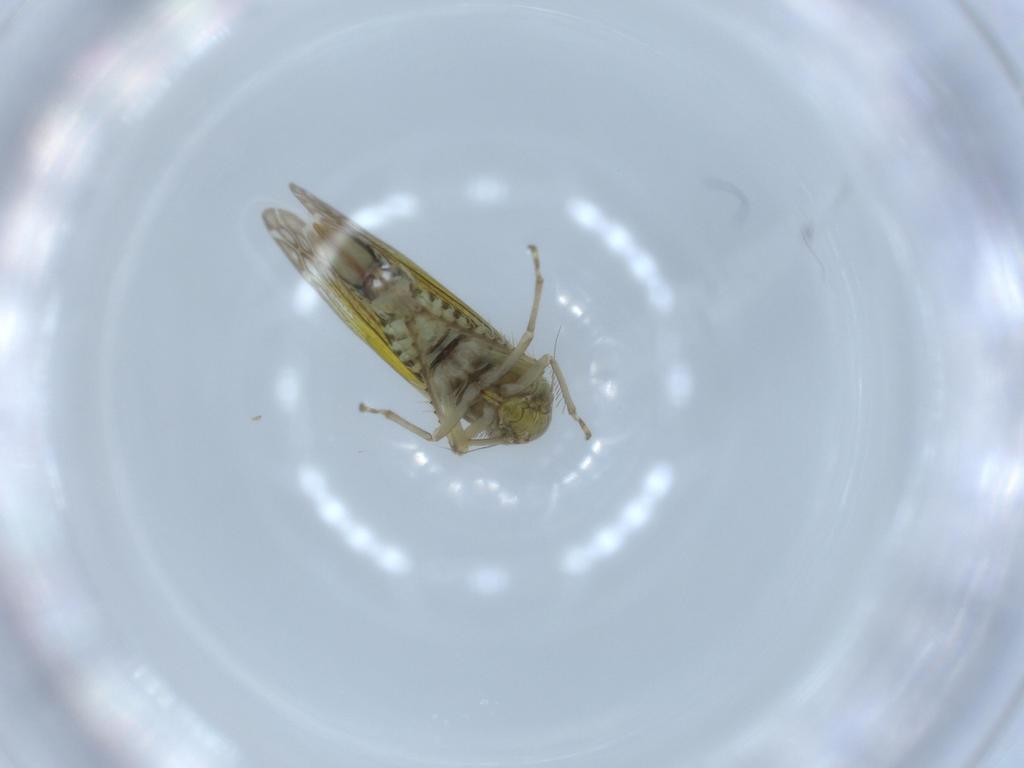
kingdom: Animalia
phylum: Arthropoda
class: Insecta
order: Hemiptera
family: Cicadellidae
